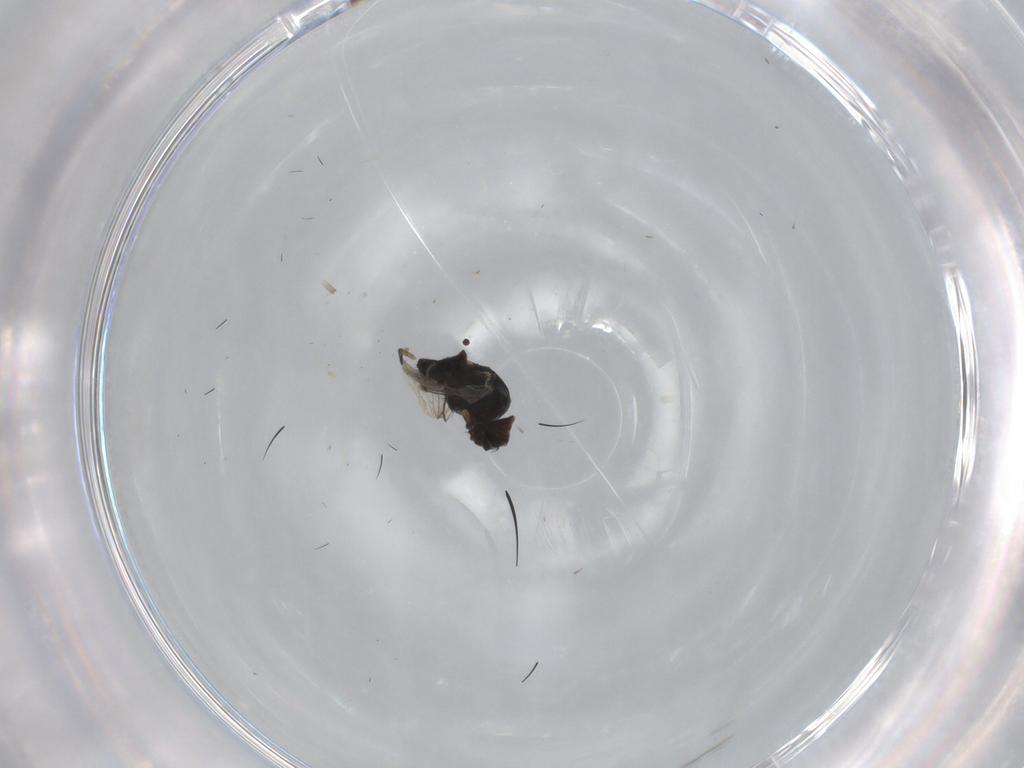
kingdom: Animalia
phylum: Arthropoda
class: Insecta
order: Diptera
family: Milichiidae
